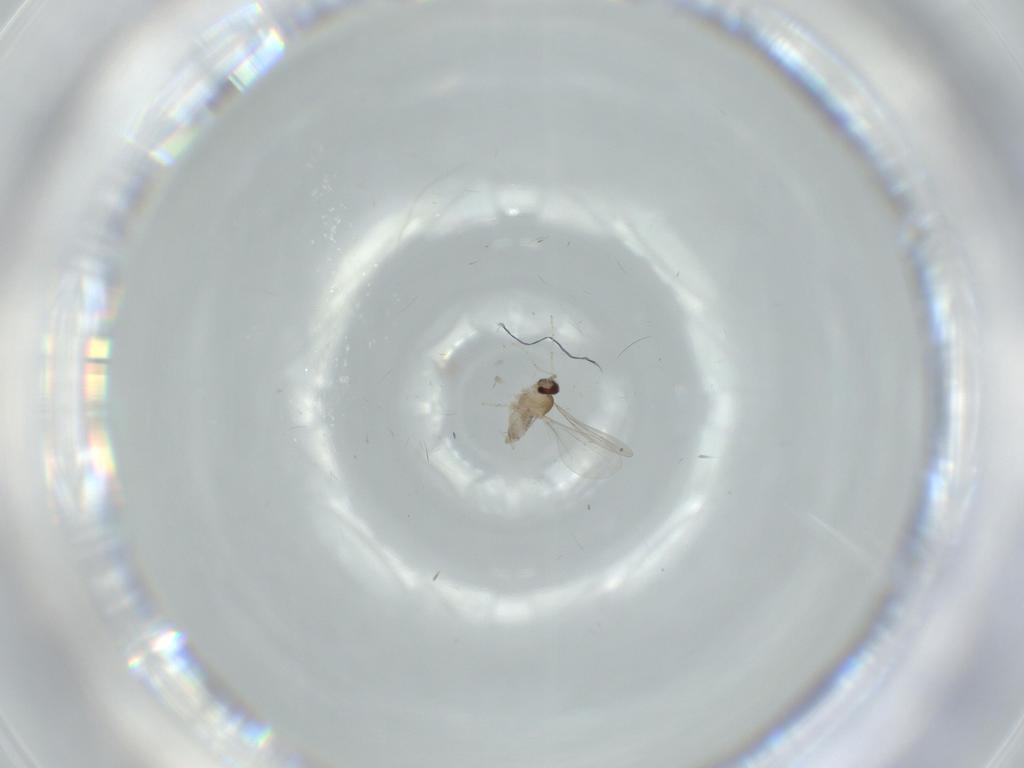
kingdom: Animalia
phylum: Arthropoda
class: Insecta
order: Diptera
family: Cecidomyiidae
